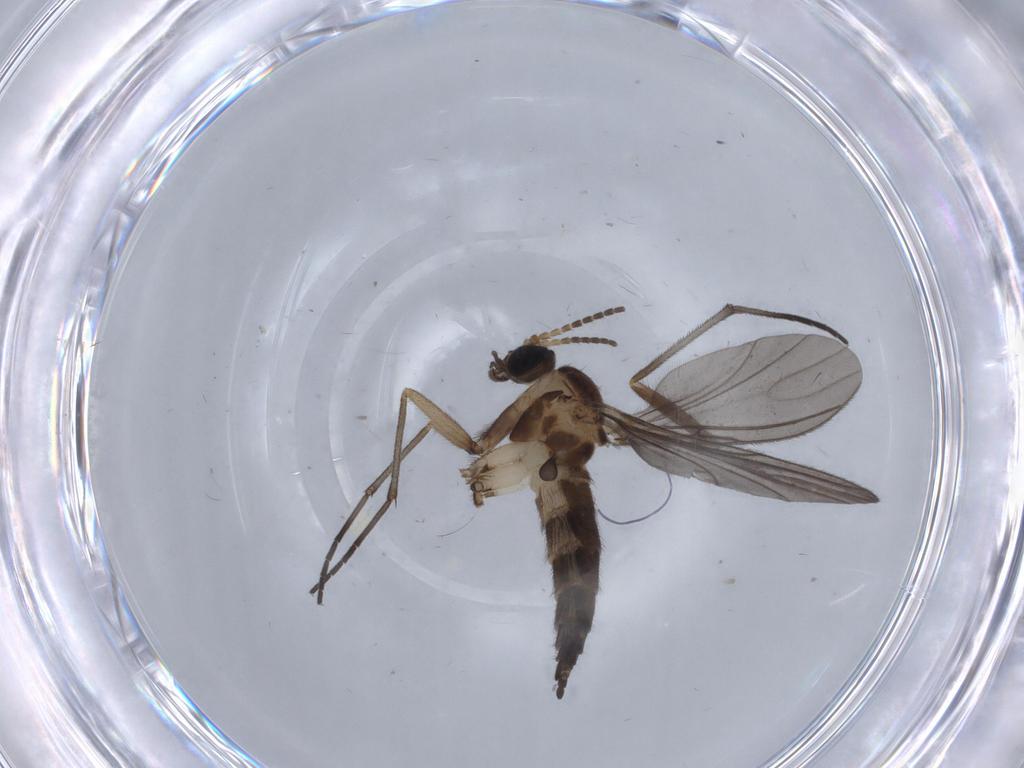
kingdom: Animalia
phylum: Arthropoda
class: Insecta
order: Diptera
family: Sciaridae
